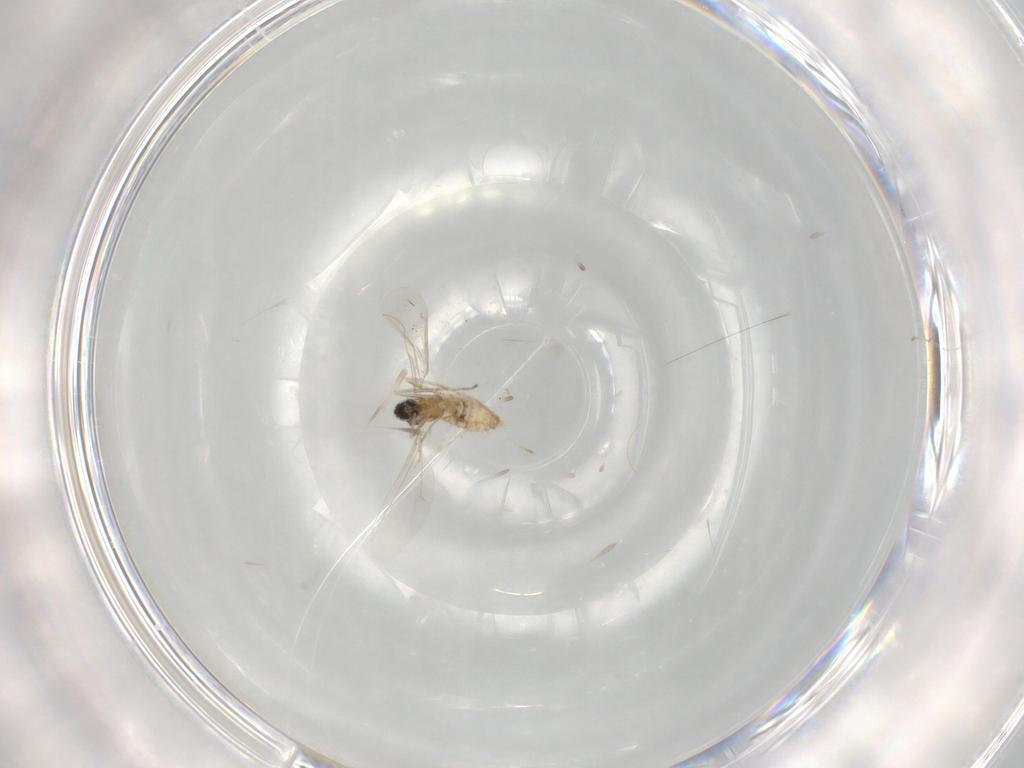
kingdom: Animalia
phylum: Arthropoda
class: Insecta
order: Diptera
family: Cecidomyiidae
